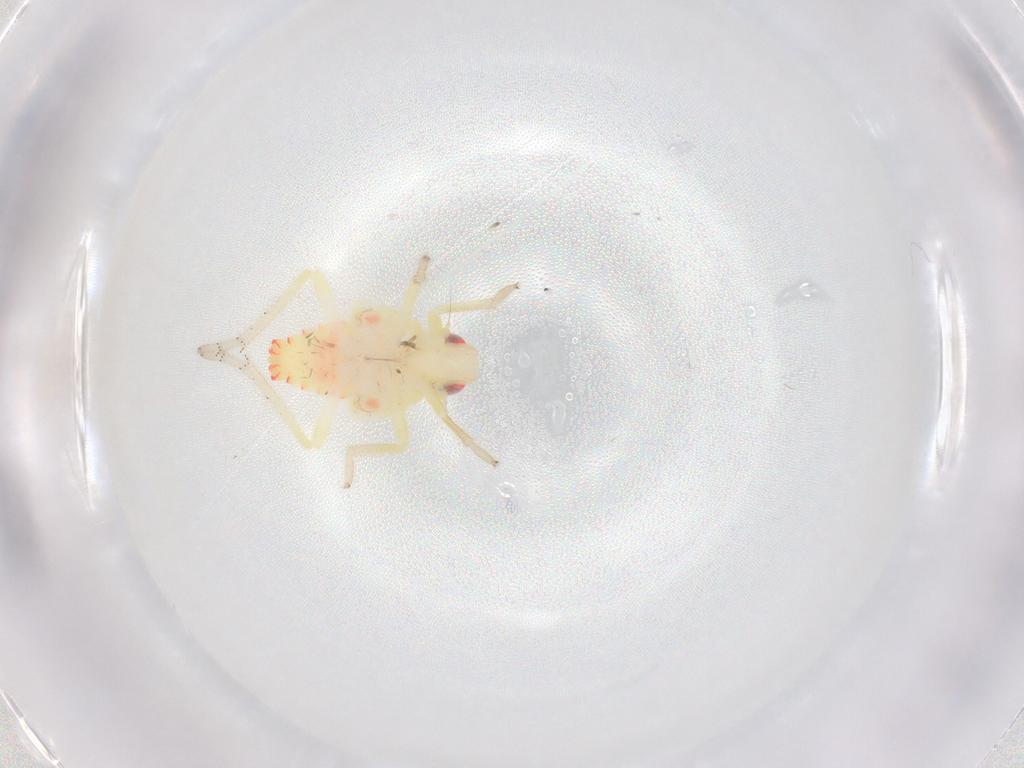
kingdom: Animalia
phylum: Arthropoda
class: Insecta
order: Hemiptera
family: Tropiduchidae
